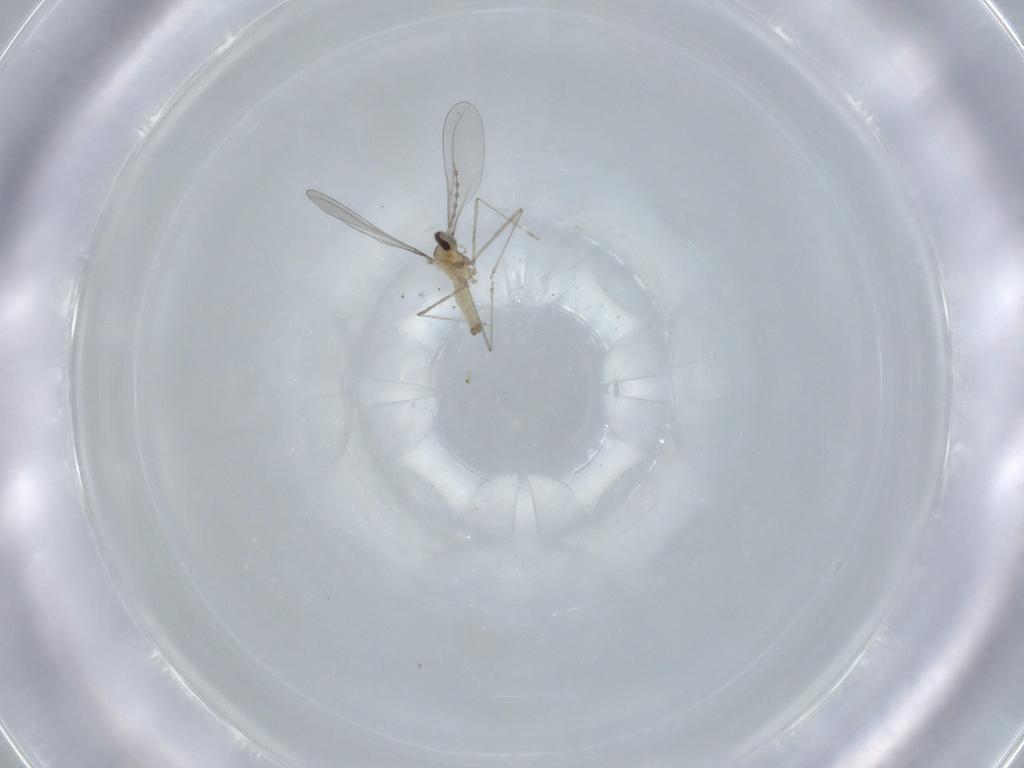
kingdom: Animalia
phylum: Arthropoda
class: Insecta
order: Diptera
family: Cecidomyiidae
